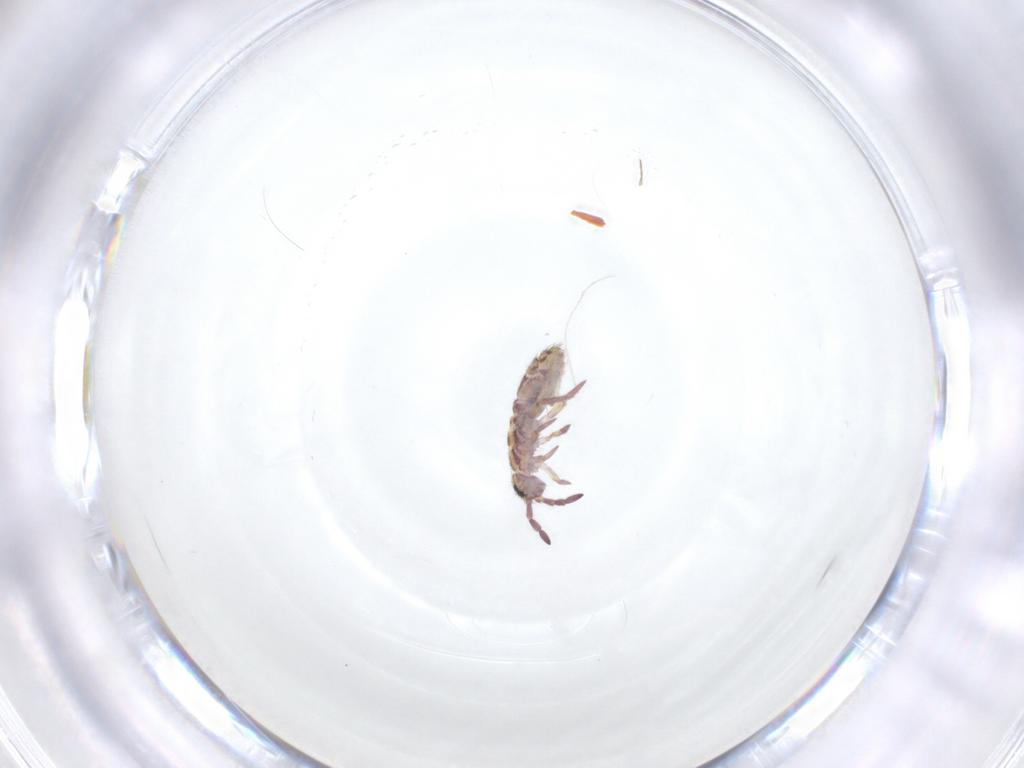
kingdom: Animalia
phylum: Arthropoda
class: Collembola
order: Entomobryomorpha
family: Isotomidae
